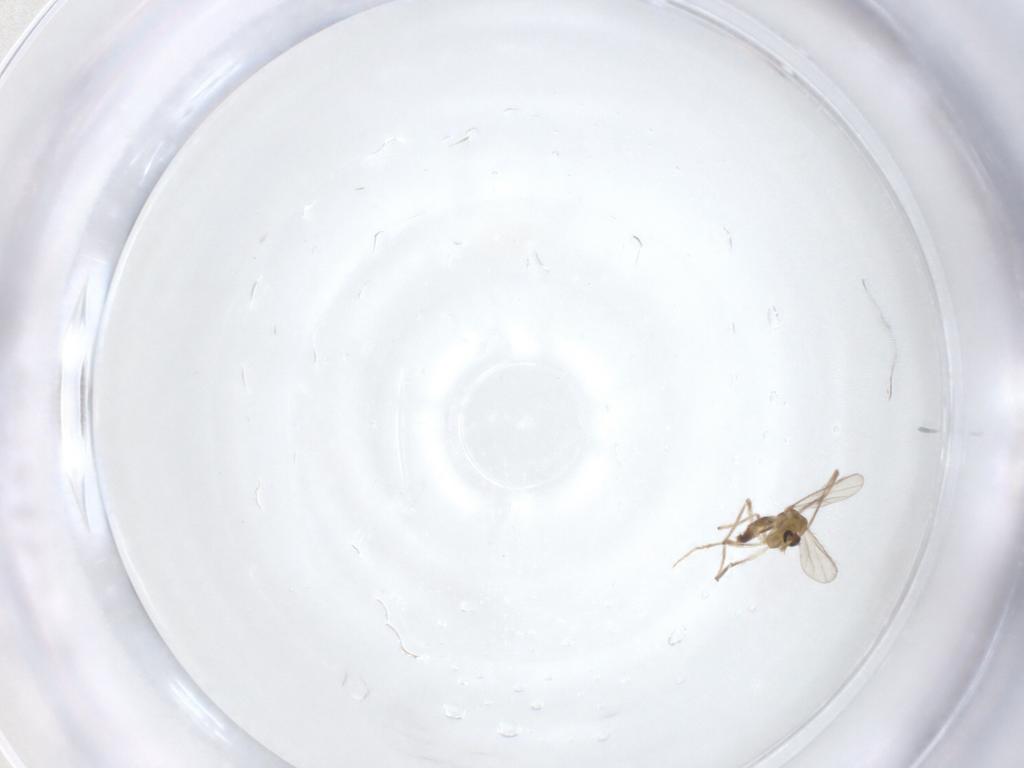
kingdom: Animalia
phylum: Arthropoda
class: Insecta
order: Diptera
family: Chironomidae
